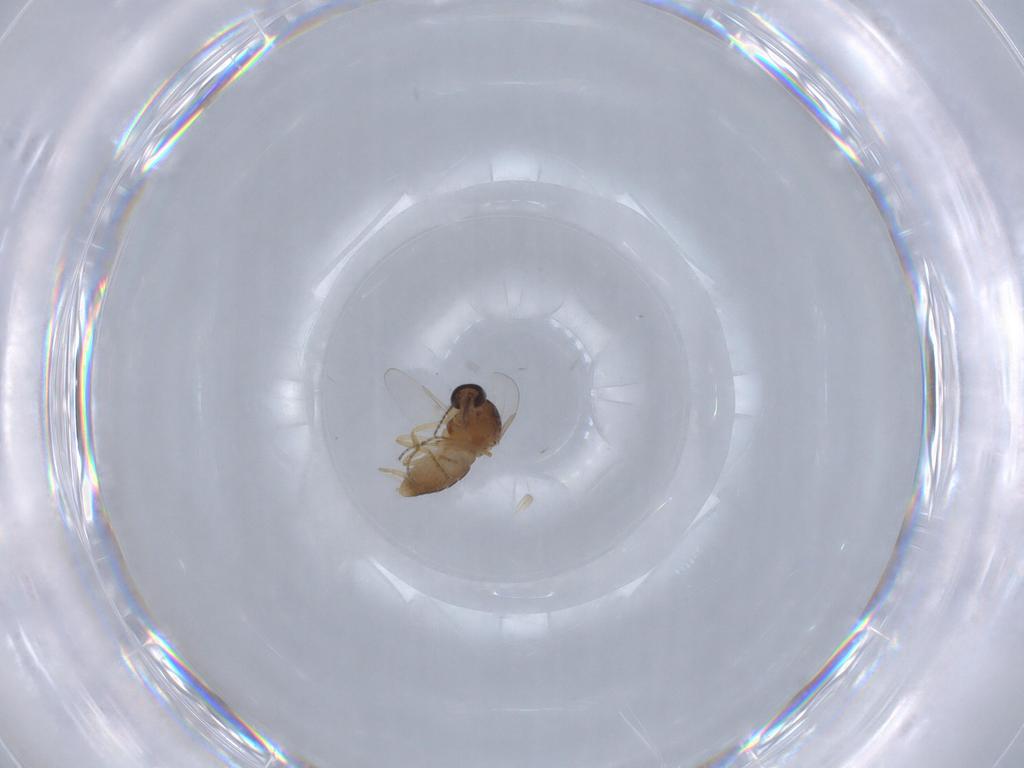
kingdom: Animalia
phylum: Arthropoda
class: Insecta
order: Diptera
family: Ceratopogonidae
